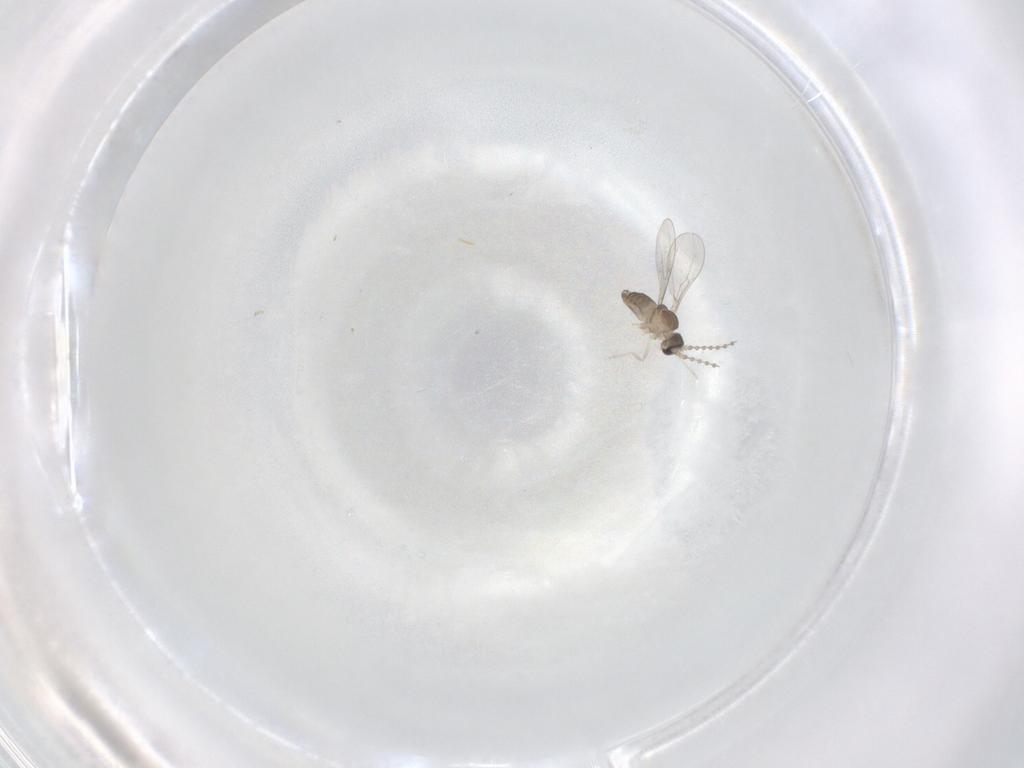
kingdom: Animalia
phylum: Arthropoda
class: Insecta
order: Diptera
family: Cecidomyiidae
